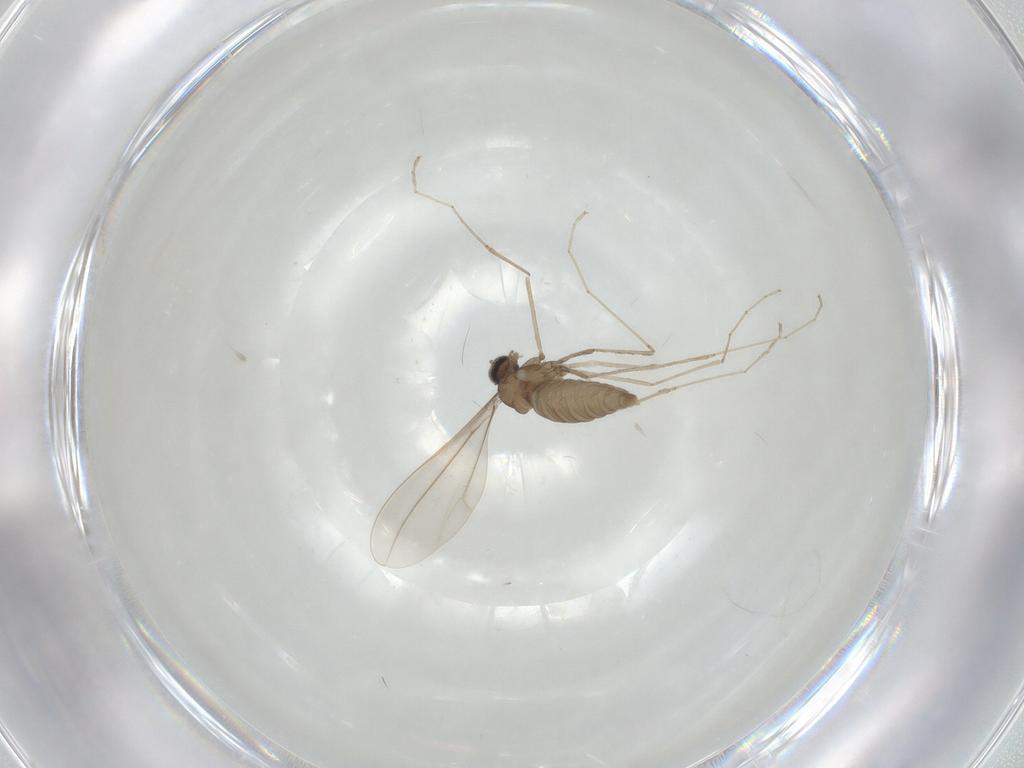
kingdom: Animalia
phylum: Arthropoda
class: Insecta
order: Diptera
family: Cecidomyiidae
